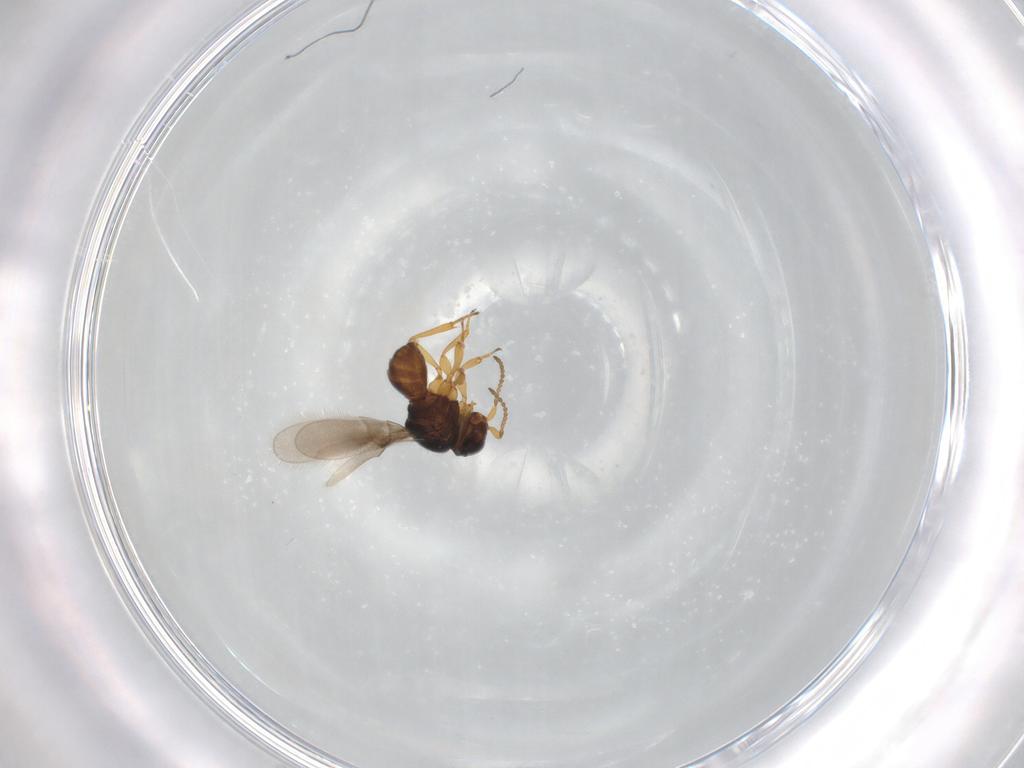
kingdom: Animalia
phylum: Arthropoda
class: Insecta
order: Hymenoptera
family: Scelionidae
